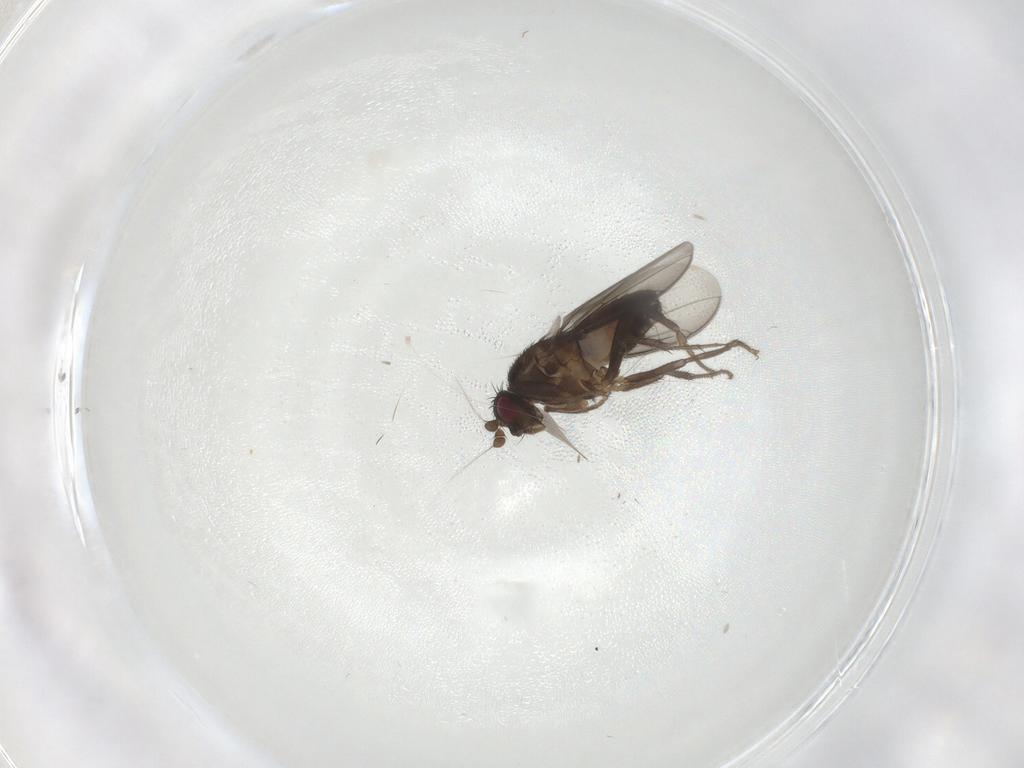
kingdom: Animalia
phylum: Arthropoda
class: Insecta
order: Diptera
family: Sphaeroceridae
